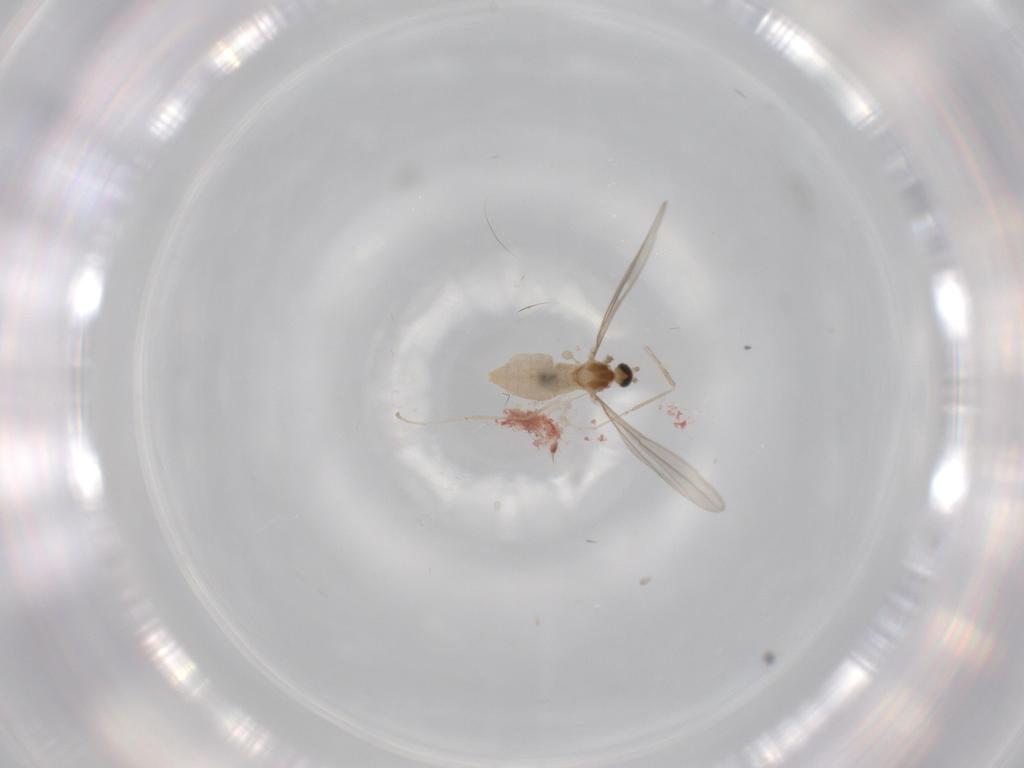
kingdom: Animalia
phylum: Arthropoda
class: Insecta
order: Diptera
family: Cecidomyiidae
